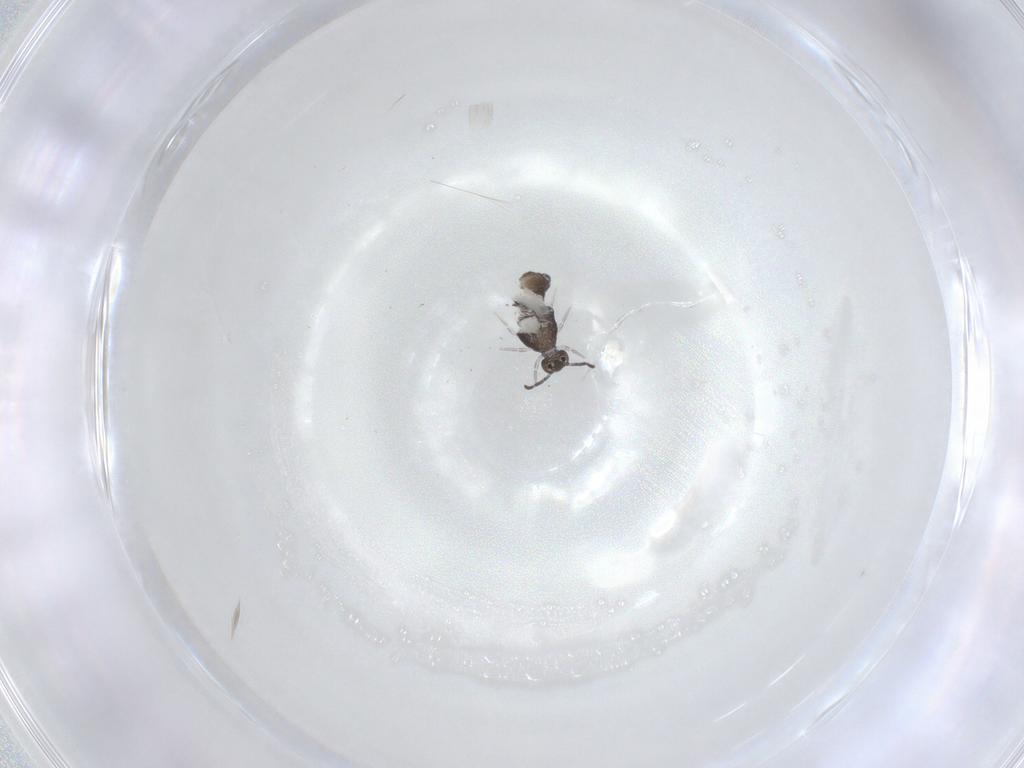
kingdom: Animalia
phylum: Arthropoda
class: Collembola
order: Symphypleona
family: Katiannidae
